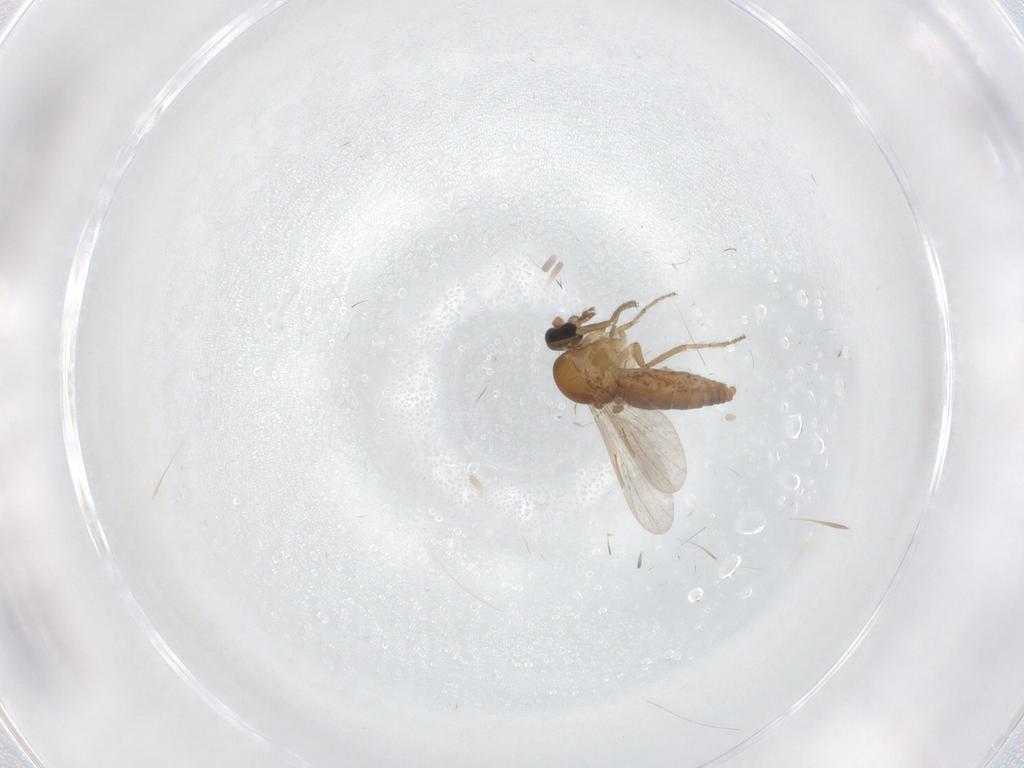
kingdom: Animalia
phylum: Arthropoda
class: Insecta
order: Diptera
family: Ceratopogonidae
